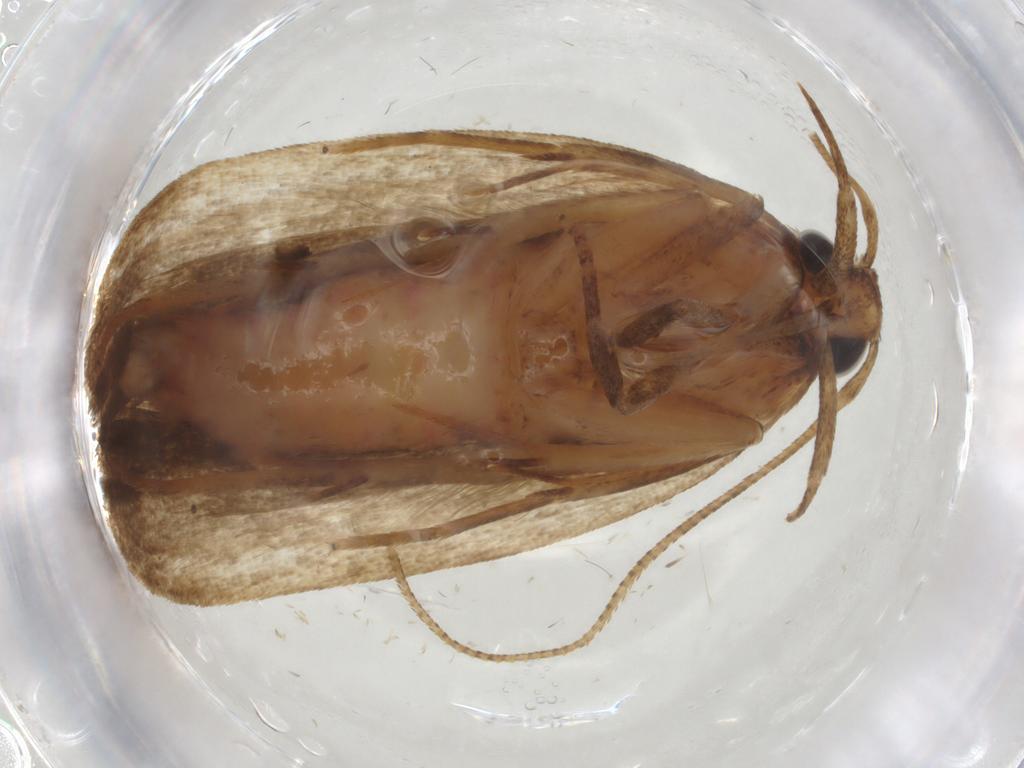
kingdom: Animalia
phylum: Arthropoda
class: Insecta
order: Lepidoptera
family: Autostichidae
